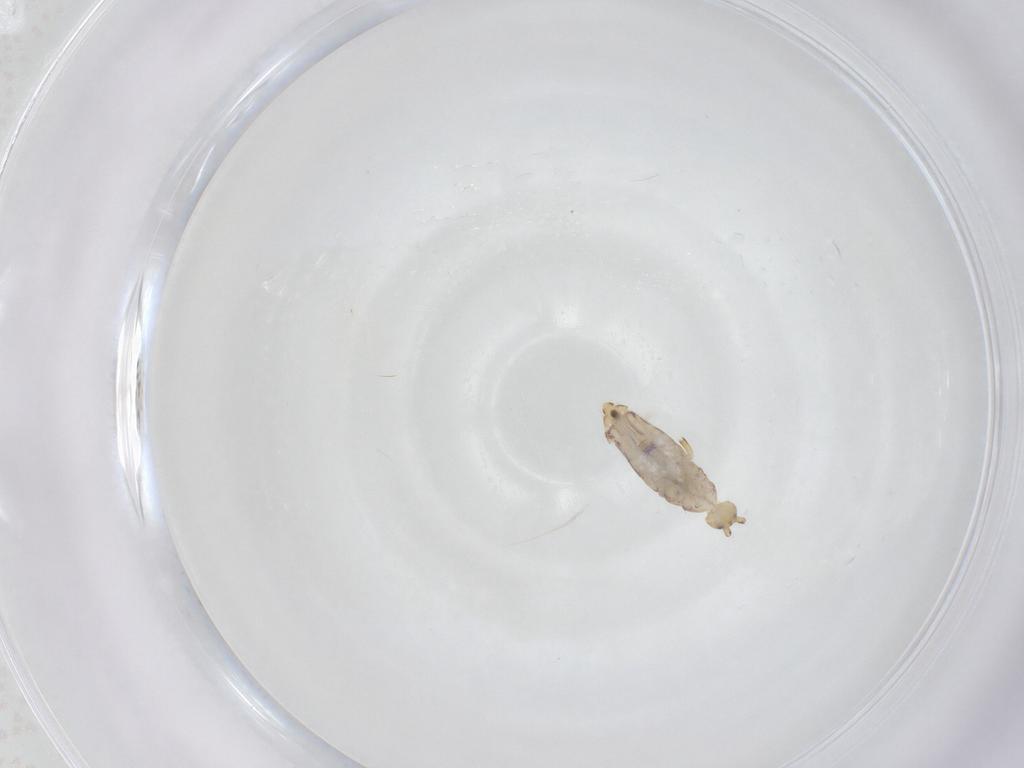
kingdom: Animalia
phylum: Arthropoda
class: Collembola
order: Entomobryomorpha
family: Entomobryidae
